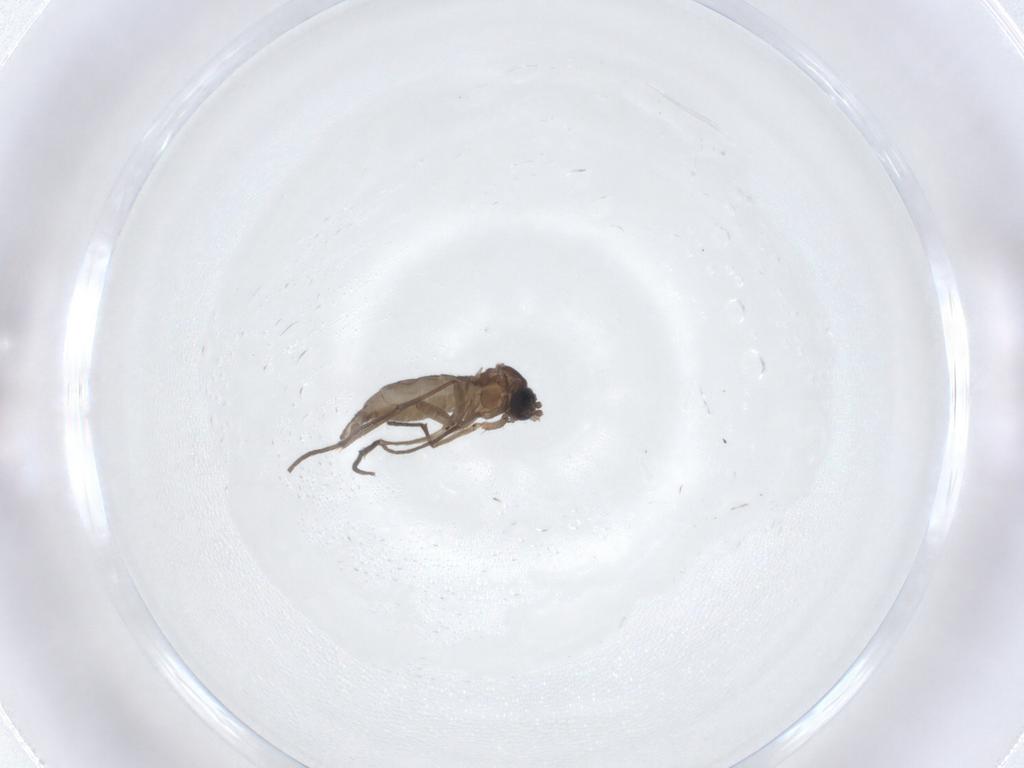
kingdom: Animalia
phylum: Arthropoda
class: Insecta
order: Diptera
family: Sciaridae
